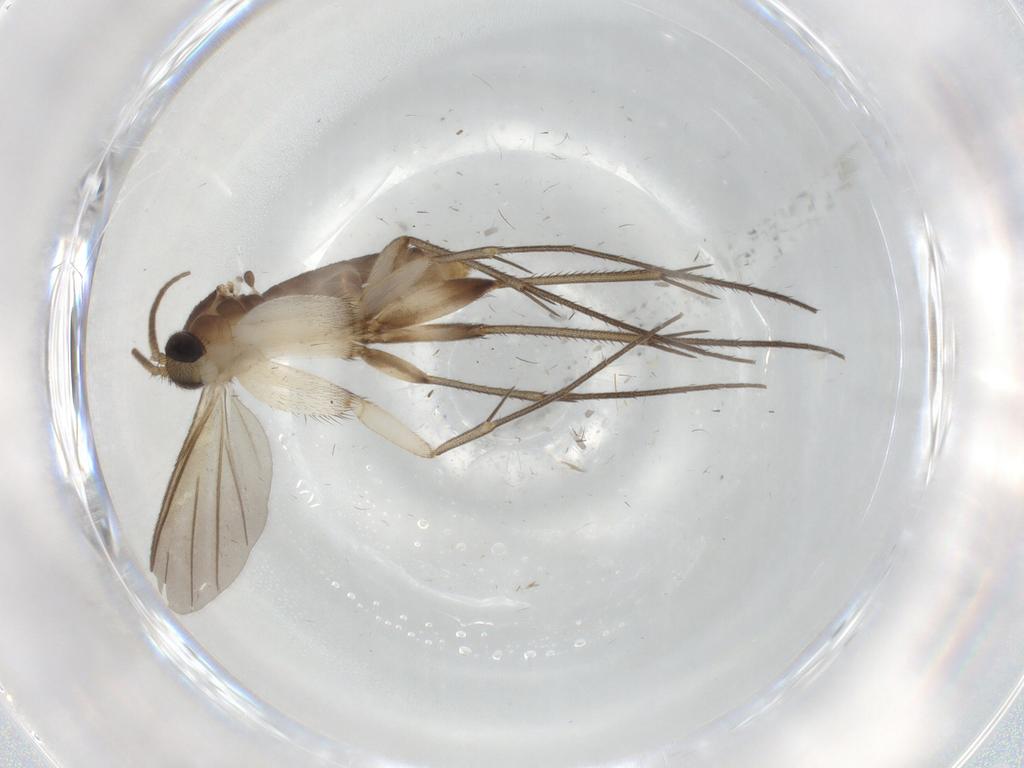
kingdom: Animalia
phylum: Arthropoda
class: Insecta
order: Diptera
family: Sciaridae
